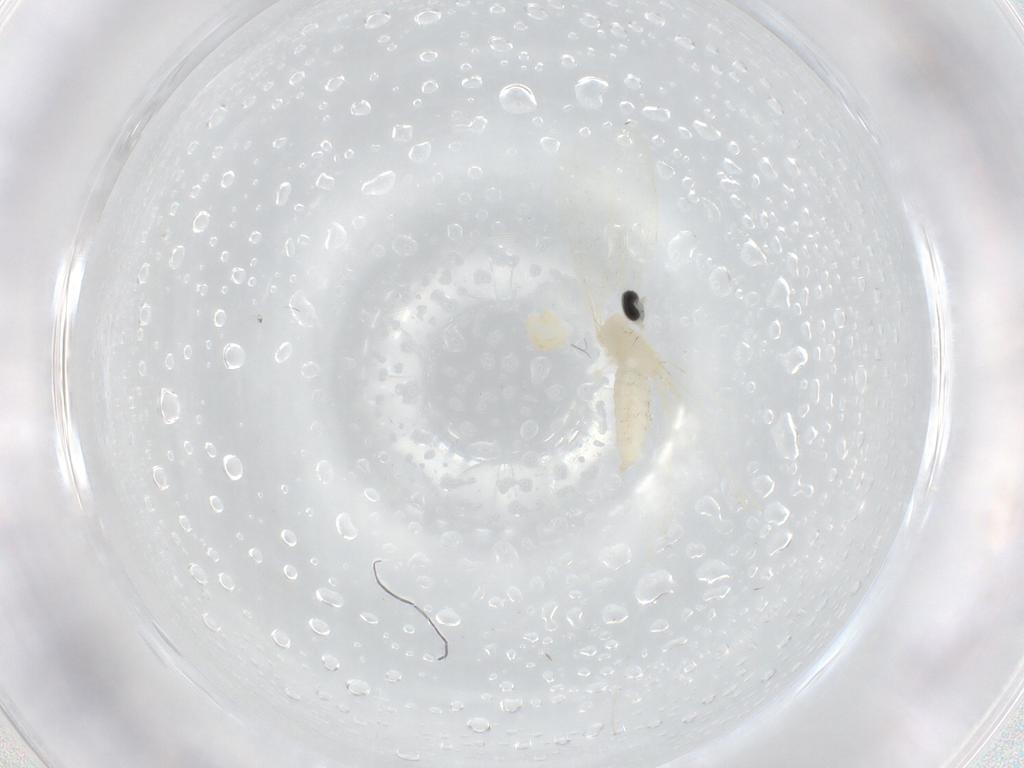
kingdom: Animalia
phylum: Arthropoda
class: Insecta
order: Diptera
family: Cecidomyiidae
